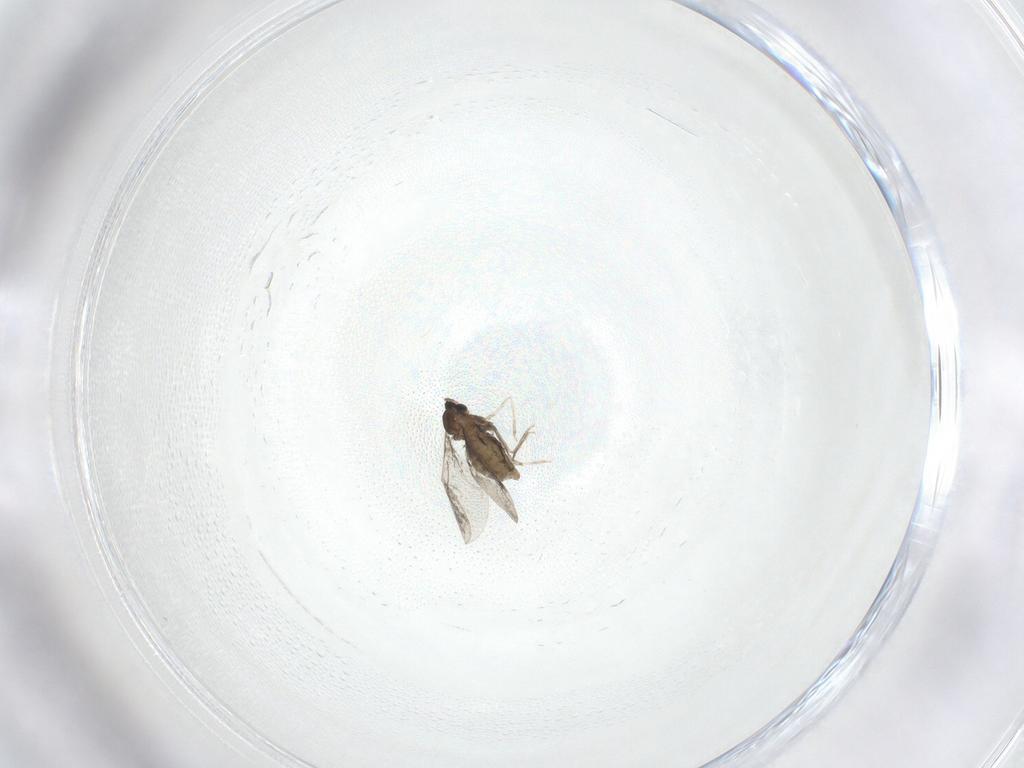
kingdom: Animalia
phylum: Arthropoda
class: Insecta
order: Diptera
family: Cecidomyiidae
